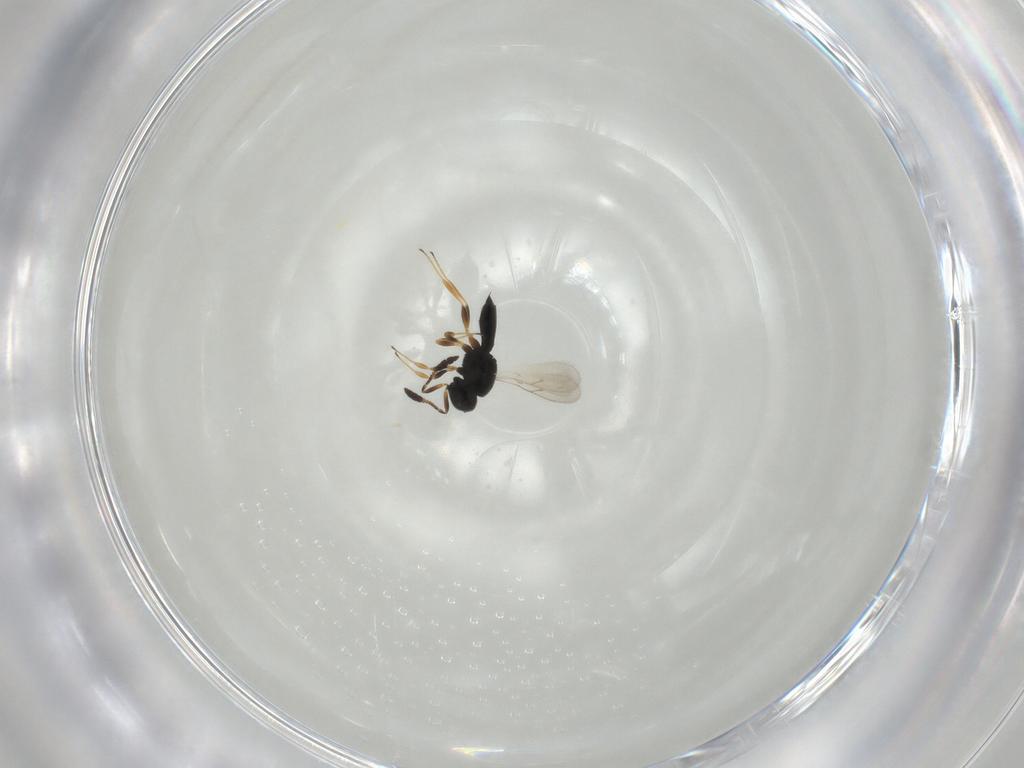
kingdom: Animalia
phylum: Arthropoda
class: Insecta
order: Hymenoptera
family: Scelionidae
